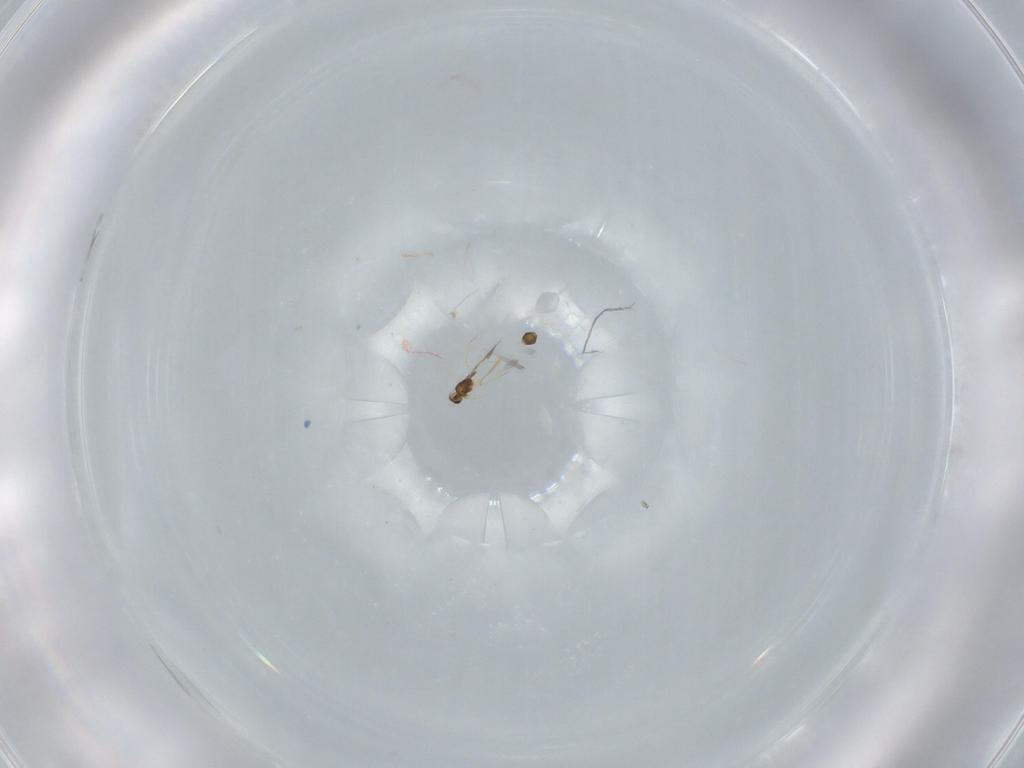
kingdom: Animalia
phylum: Arthropoda
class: Insecta
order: Hymenoptera
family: Mymarommatidae
